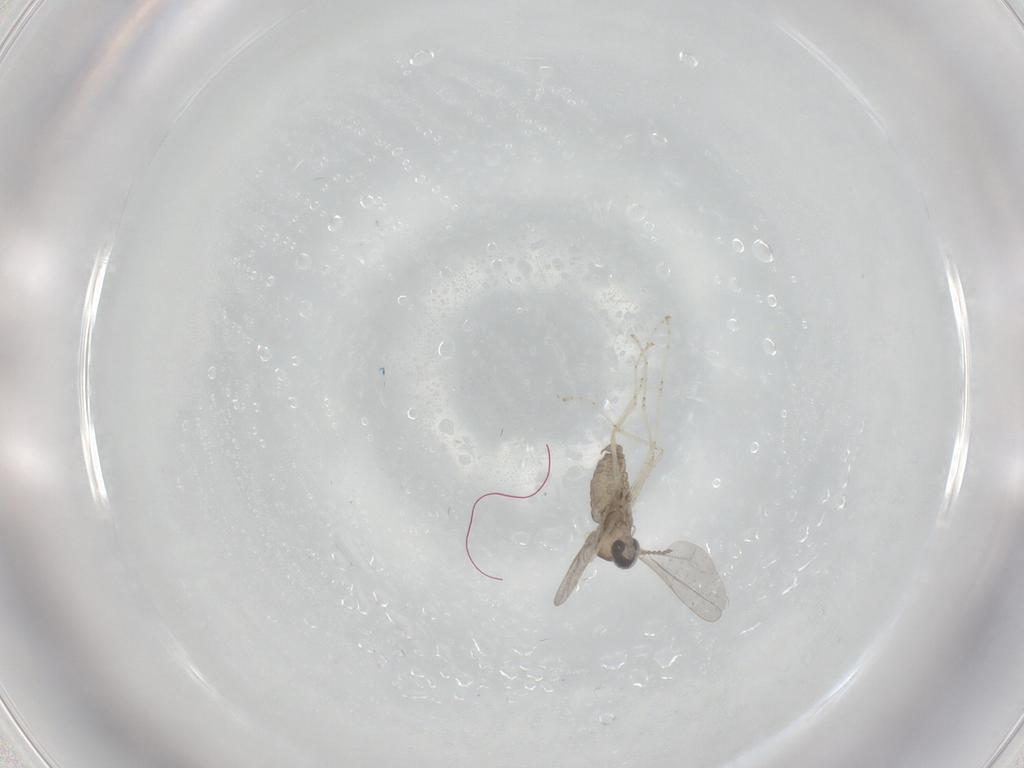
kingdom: Animalia
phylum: Arthropoda
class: Insecta
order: Diptera
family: Cecidomyiidae
